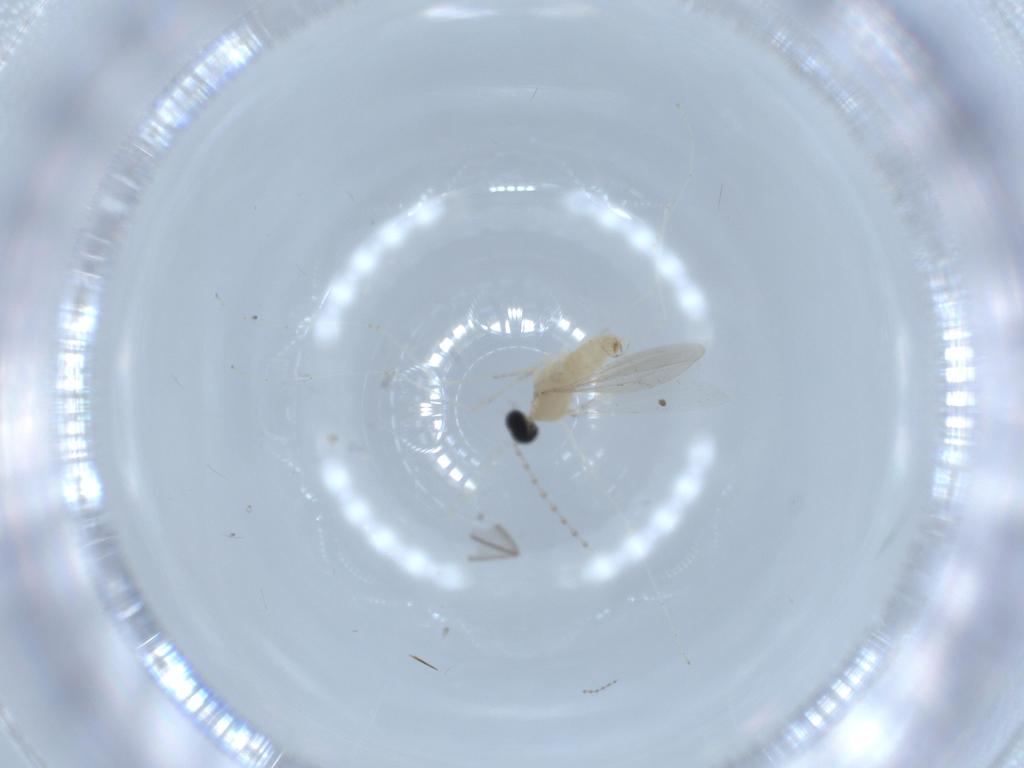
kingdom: Animalia
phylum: Arthropoda
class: Insecta
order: Diptera
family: Cecidomyiidae
